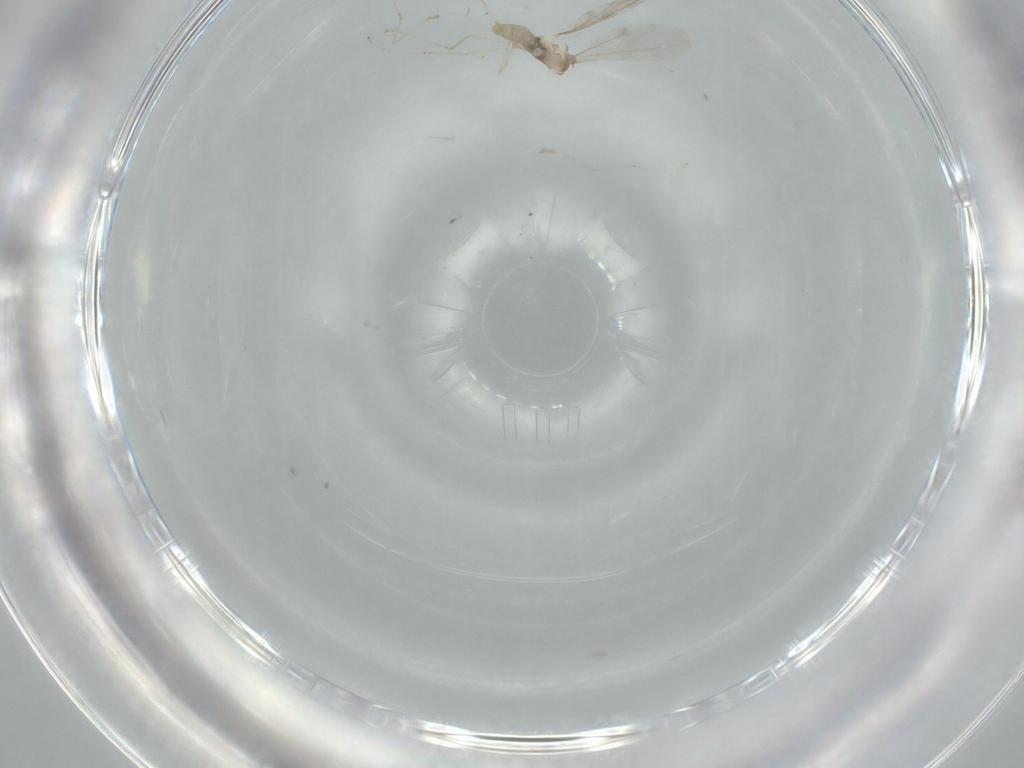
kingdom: Animalia
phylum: Arthropoda
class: Insecta
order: Diptera
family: Cecidomyiidae
